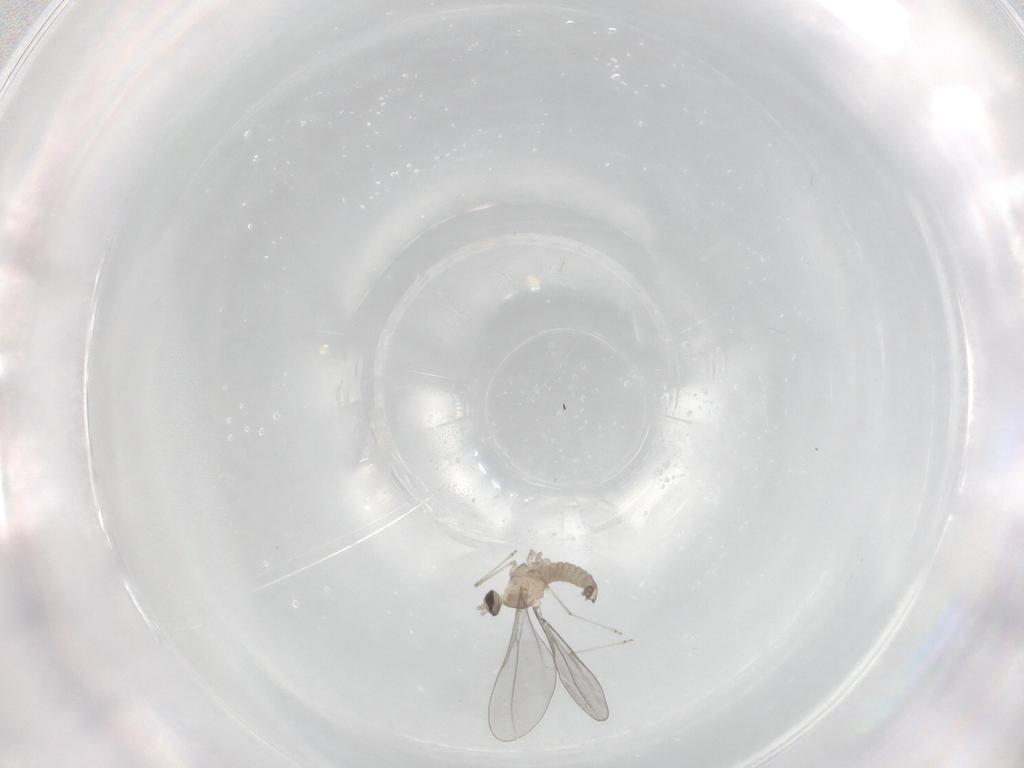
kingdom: Animalia
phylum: Arthropoda
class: Insecta
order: Diptera
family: Cecidomyiidae
